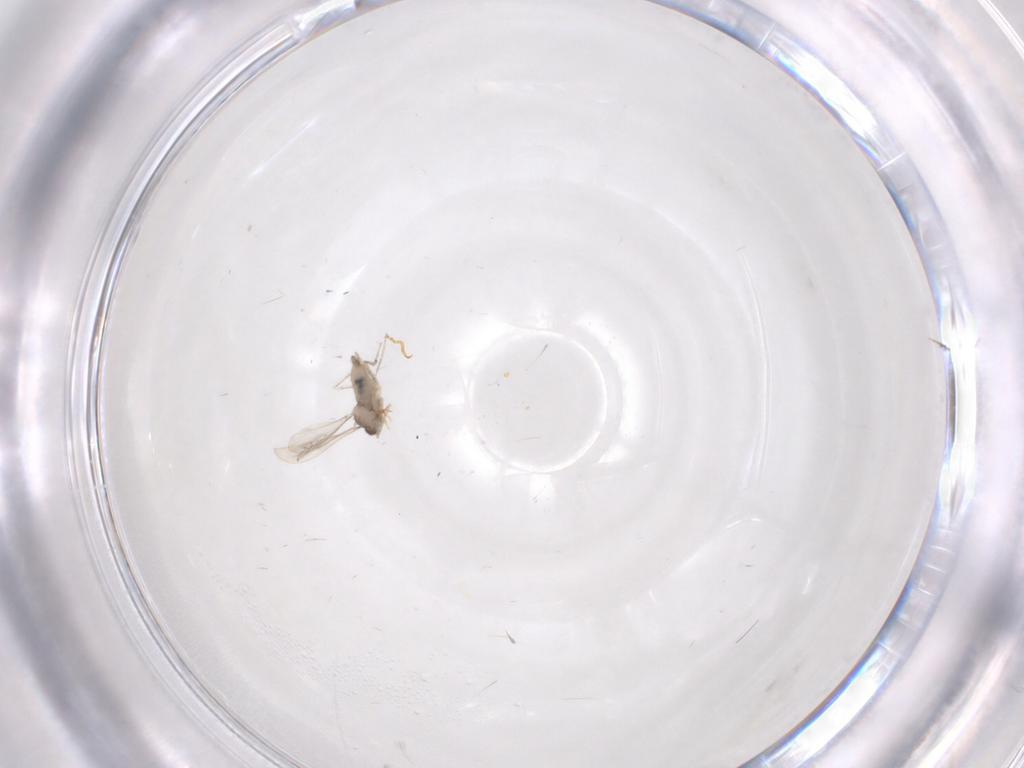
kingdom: Animalia
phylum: Arthropoda
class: Insecta
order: Diptera
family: Cecidomyiidae
